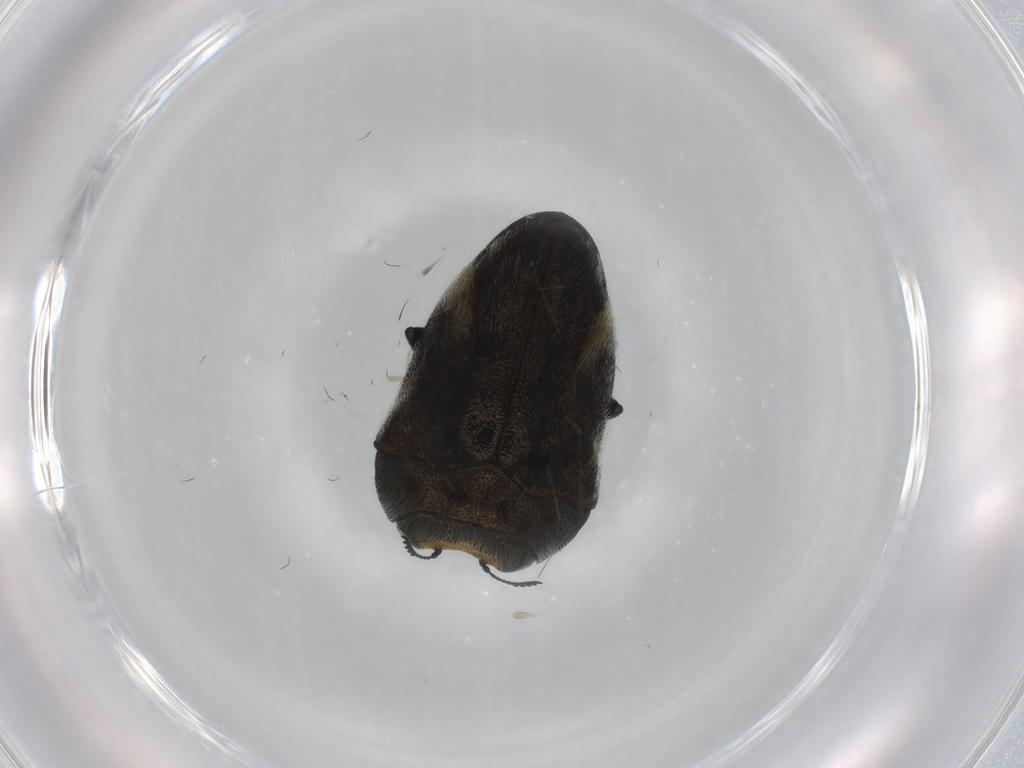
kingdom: Animalia
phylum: Arthropoda
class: Insecta
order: Coleoptera
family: Buprestidae
